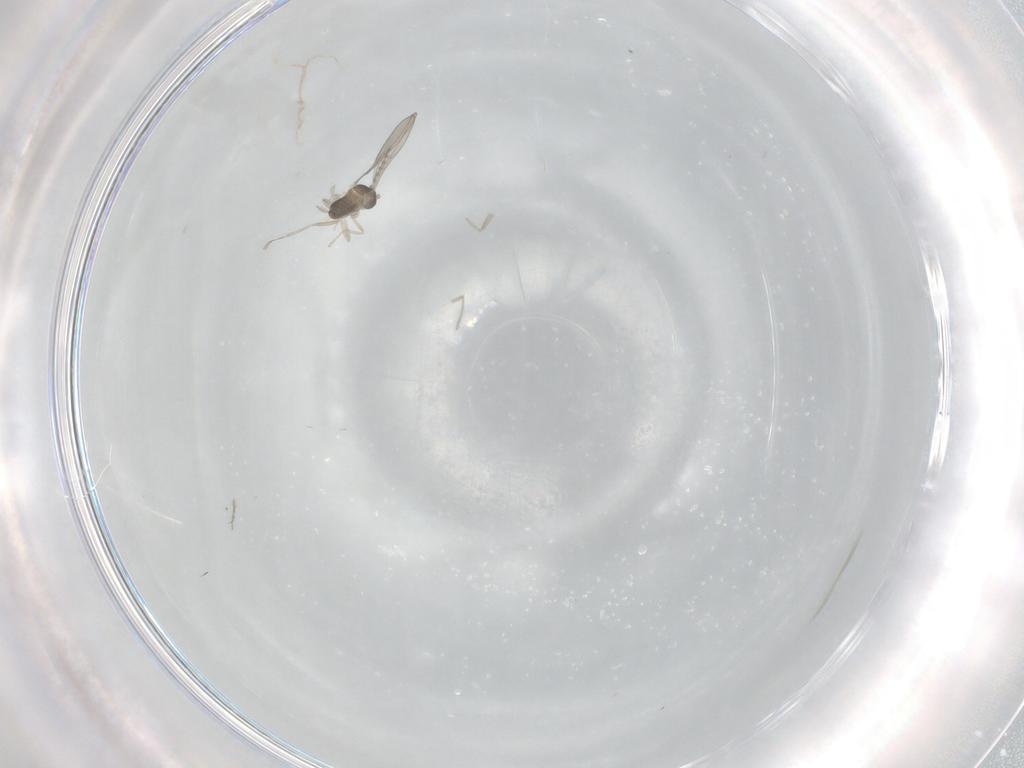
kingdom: Animalia
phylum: Arthropoda
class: Insecta
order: Diptera
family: Cecidomyiidae
